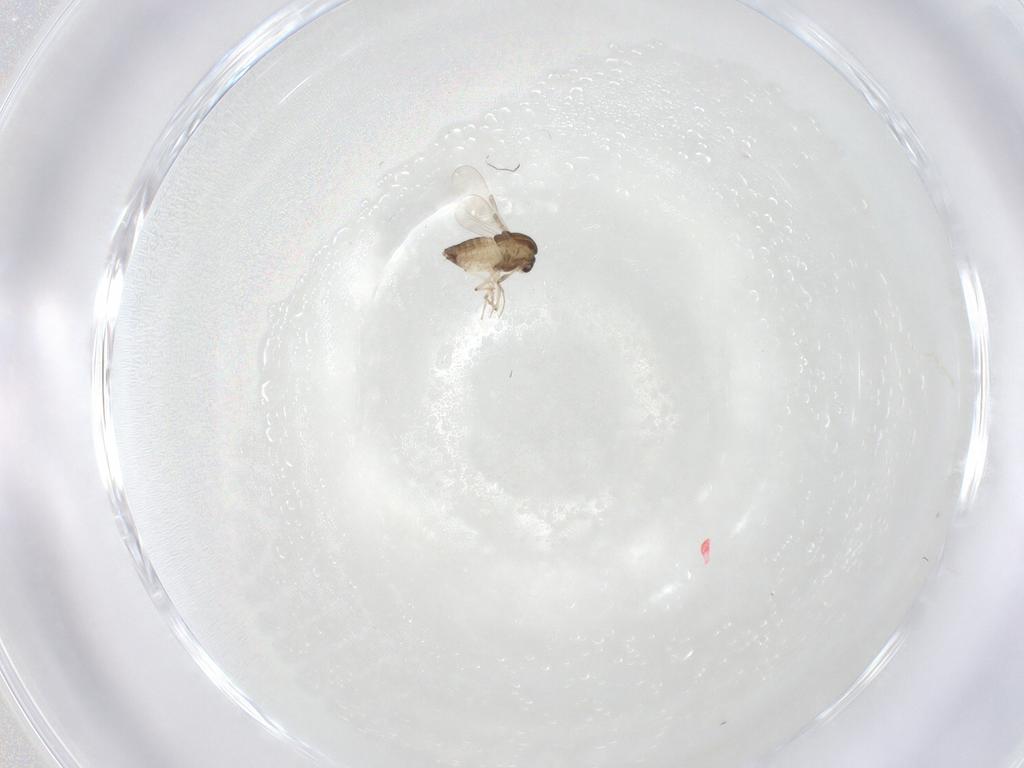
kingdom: Animalia
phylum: Arthropoda
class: Insecta
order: Diptera
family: Chironomidae
